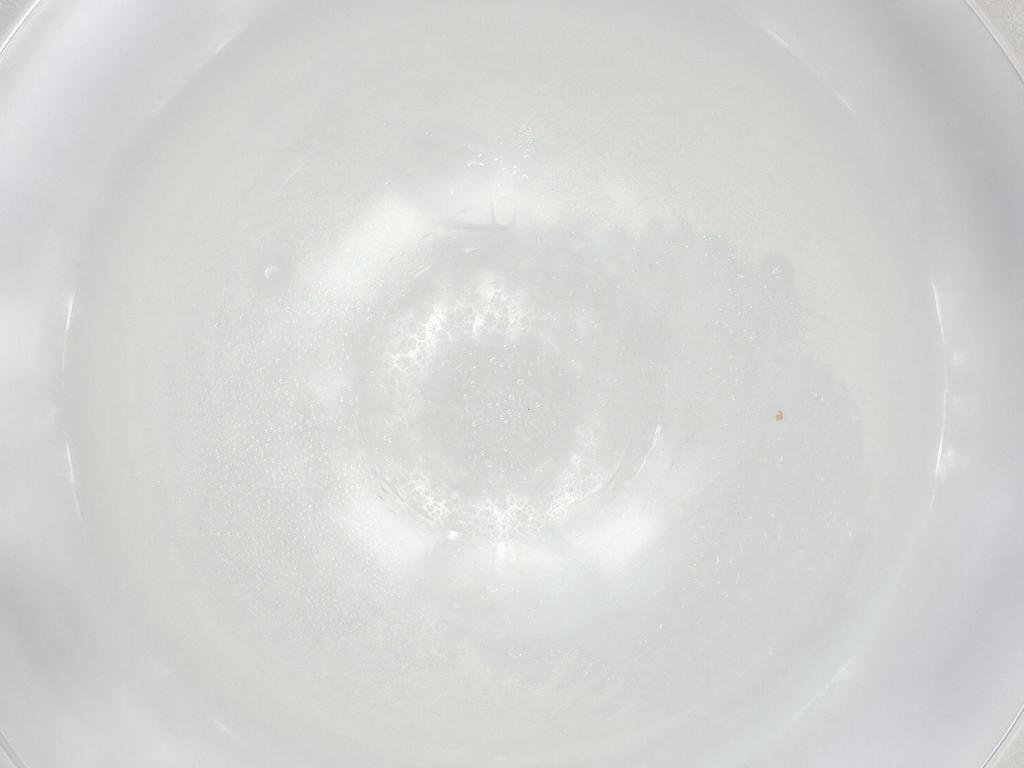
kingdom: Animalia
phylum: Arthropoda
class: Insecta
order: Diptera
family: Phoridae
